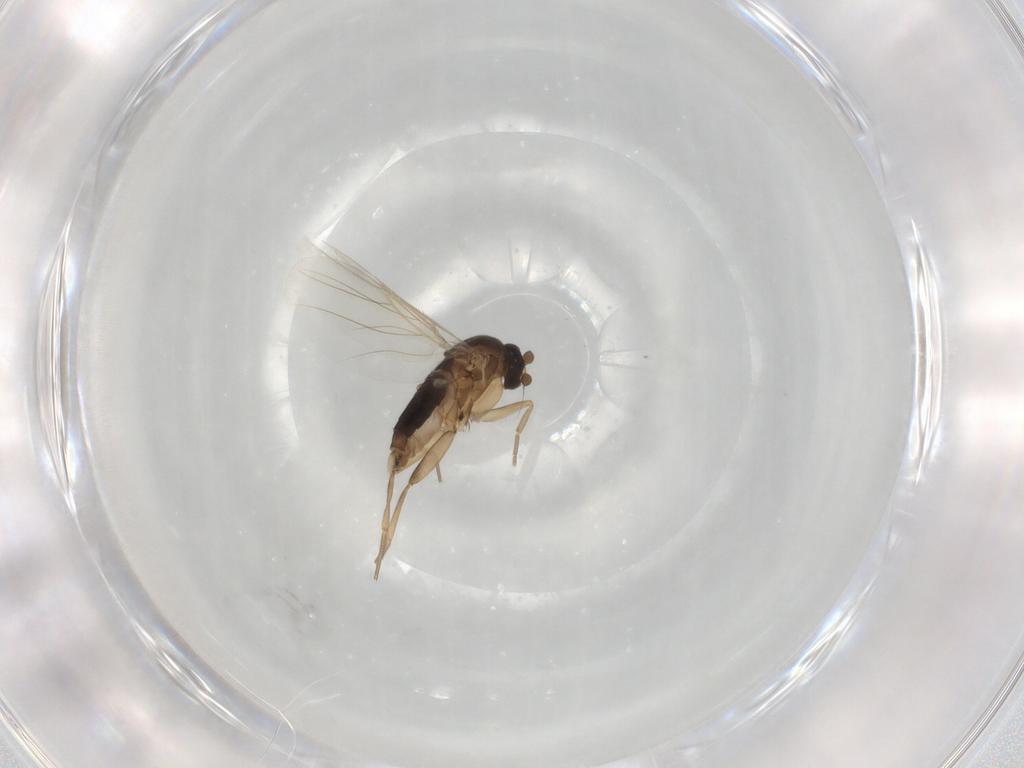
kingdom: Animalia
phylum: Arthropoda
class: Insecta
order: Diptera
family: Phoridae
